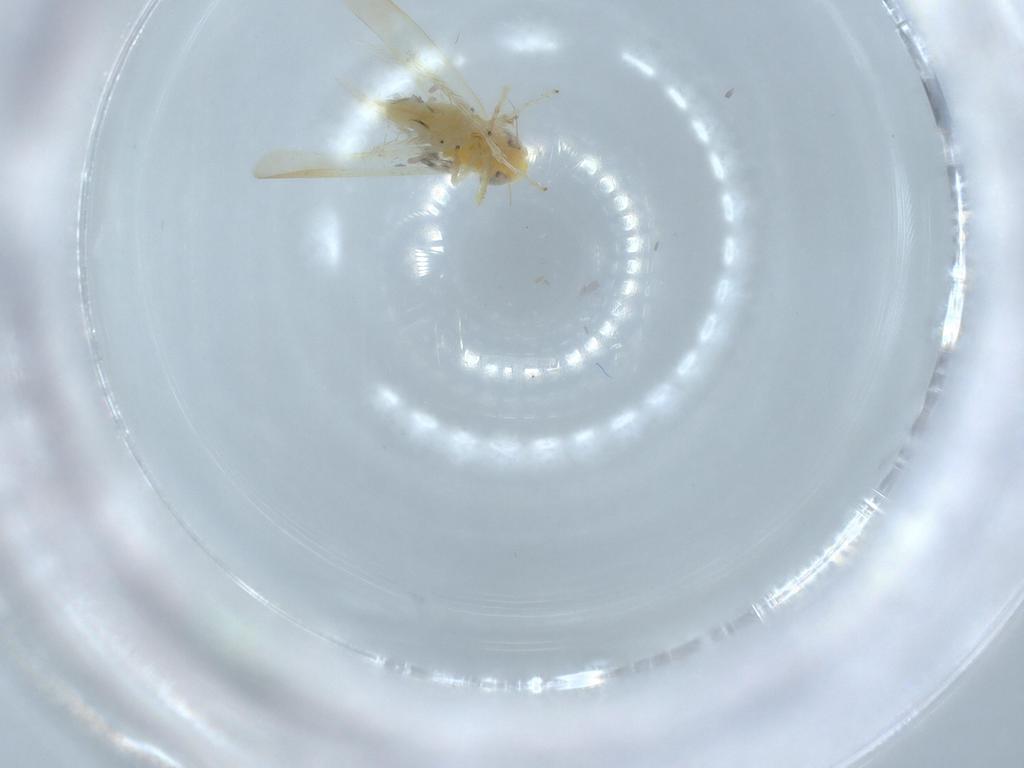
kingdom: Animalia
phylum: Arthropoda
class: Insecta
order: Hemiptera
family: Cicadellidae
